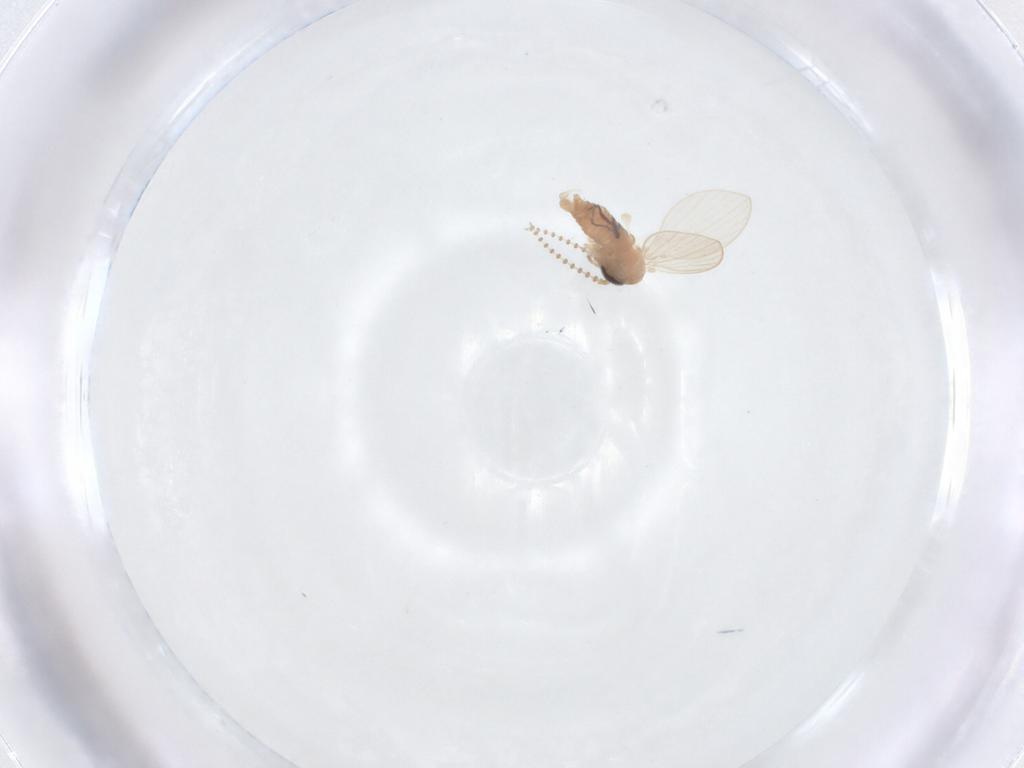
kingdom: Animalia
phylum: Arthropoda
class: Insecta
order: Diptera
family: Psychodidae
